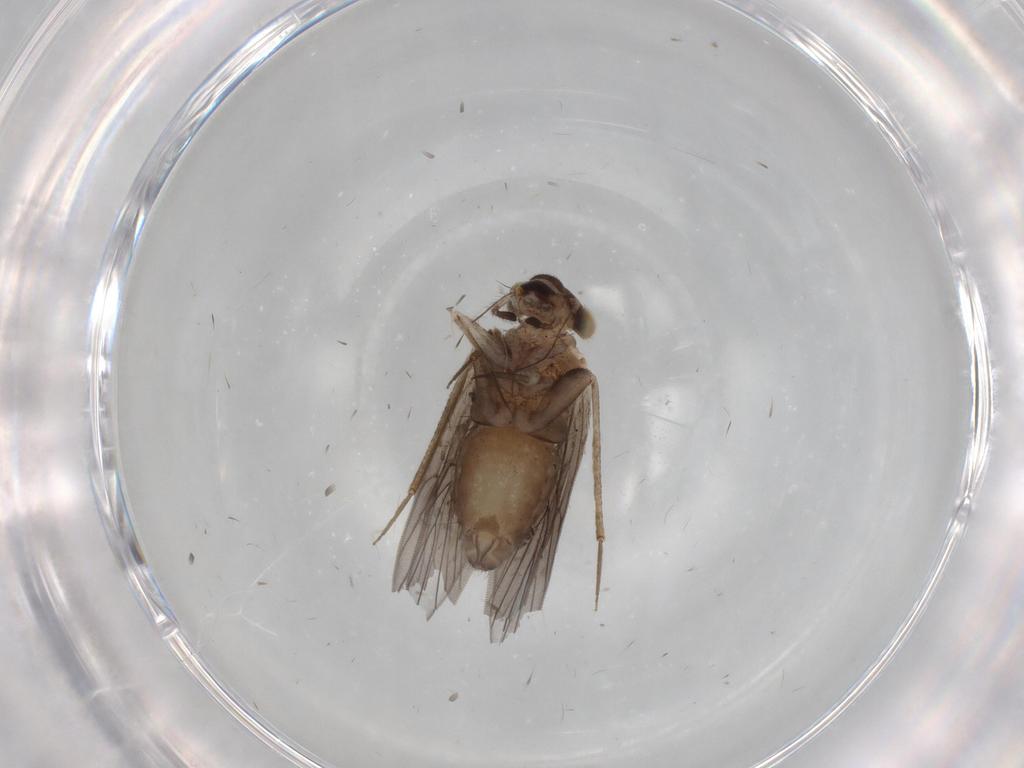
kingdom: Animalia
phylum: Arthropoda
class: Insecta
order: Psocodea
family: Lepidopsocidae
